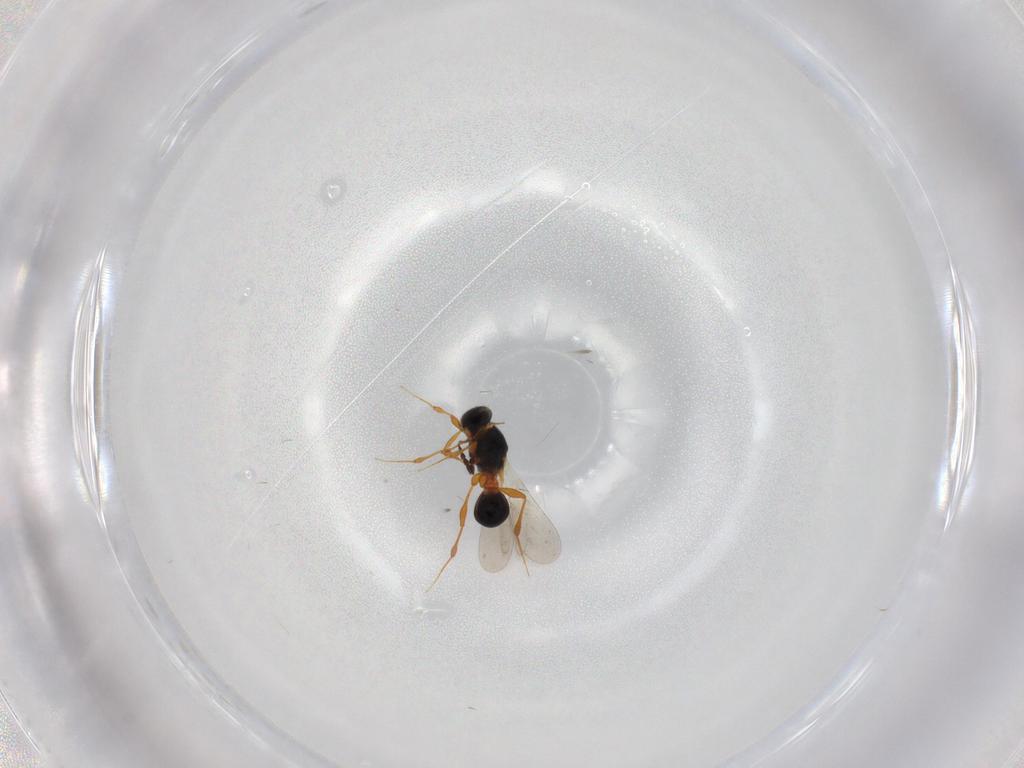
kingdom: Animalia
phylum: Arthropoda
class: Insecta
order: Hymenoptera
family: Platygastridae
